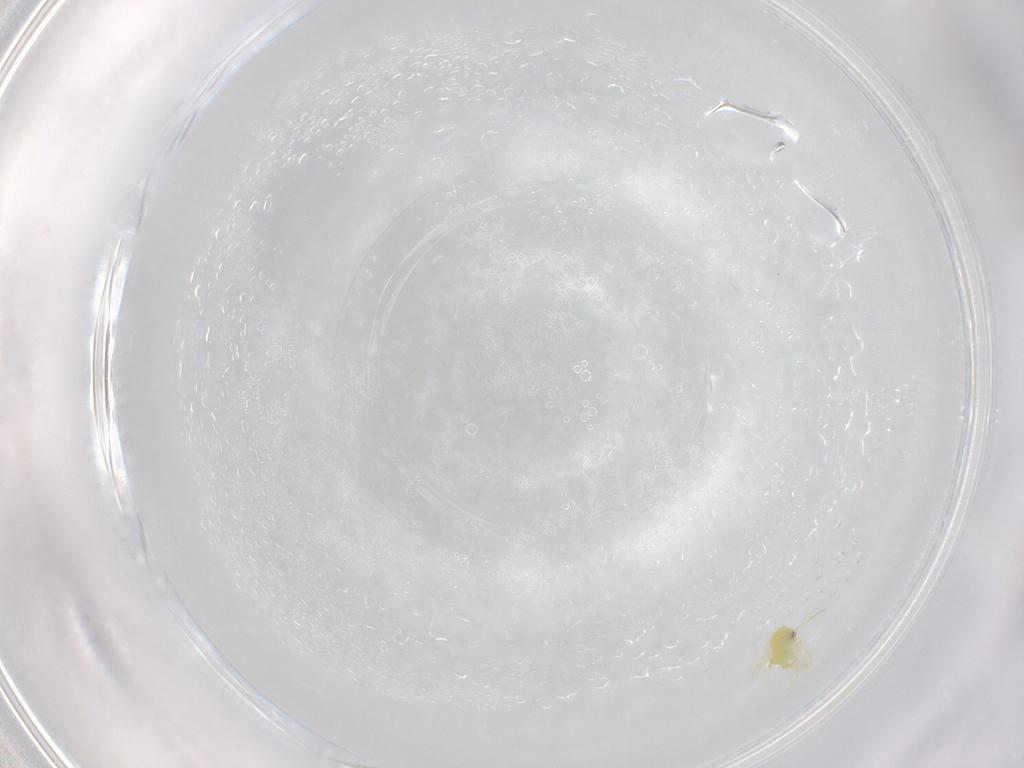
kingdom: Animalia
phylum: Arthropoda
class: Insecta
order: Hemiptera
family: Aleyrodidae
